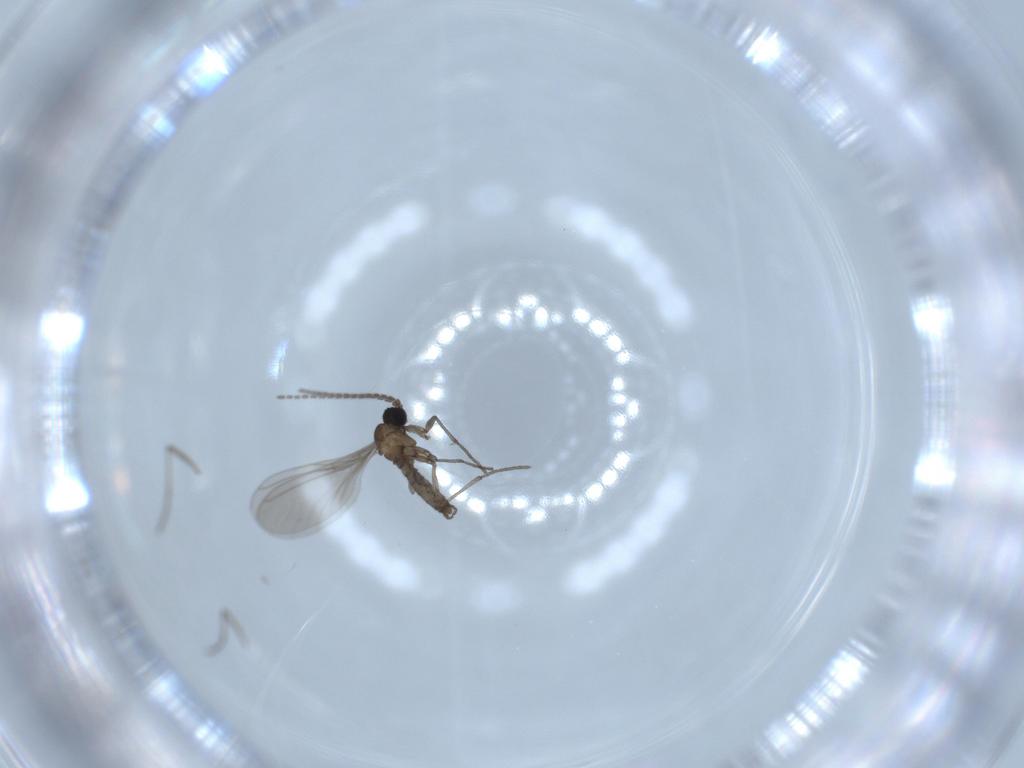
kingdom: Animalia
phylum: Arthropoda
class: Insecta
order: Diptera
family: Sciaridae
